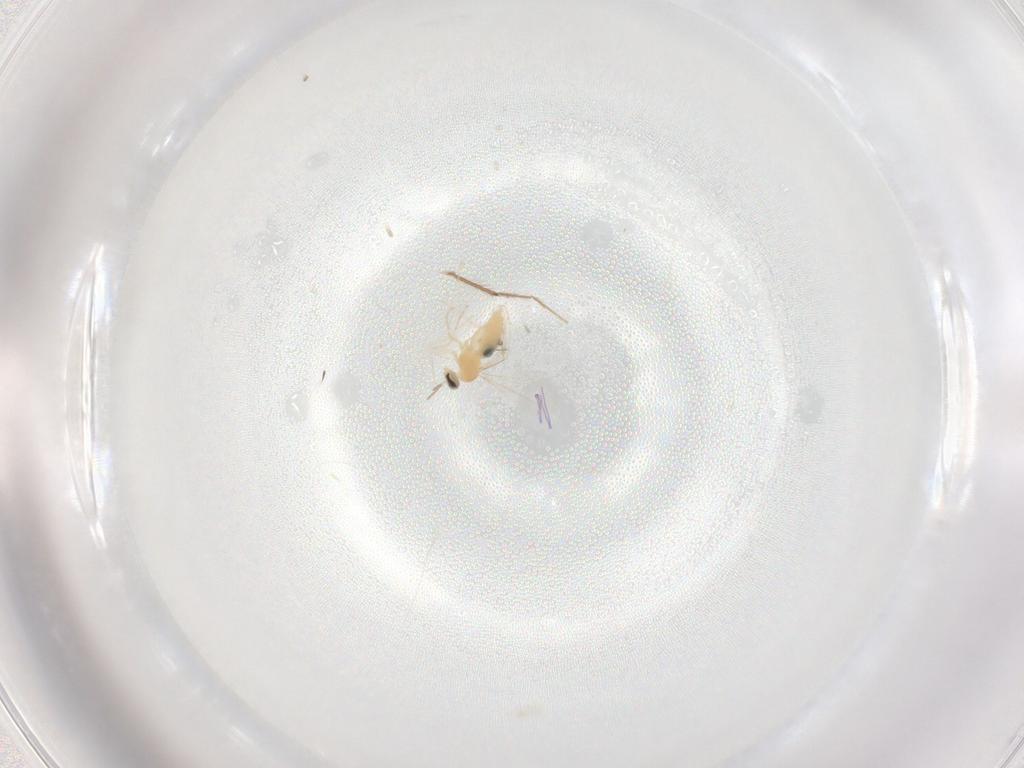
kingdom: Animalia
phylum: Arthropoda
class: Insecta
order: Diptera
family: Cecidomyiidae
